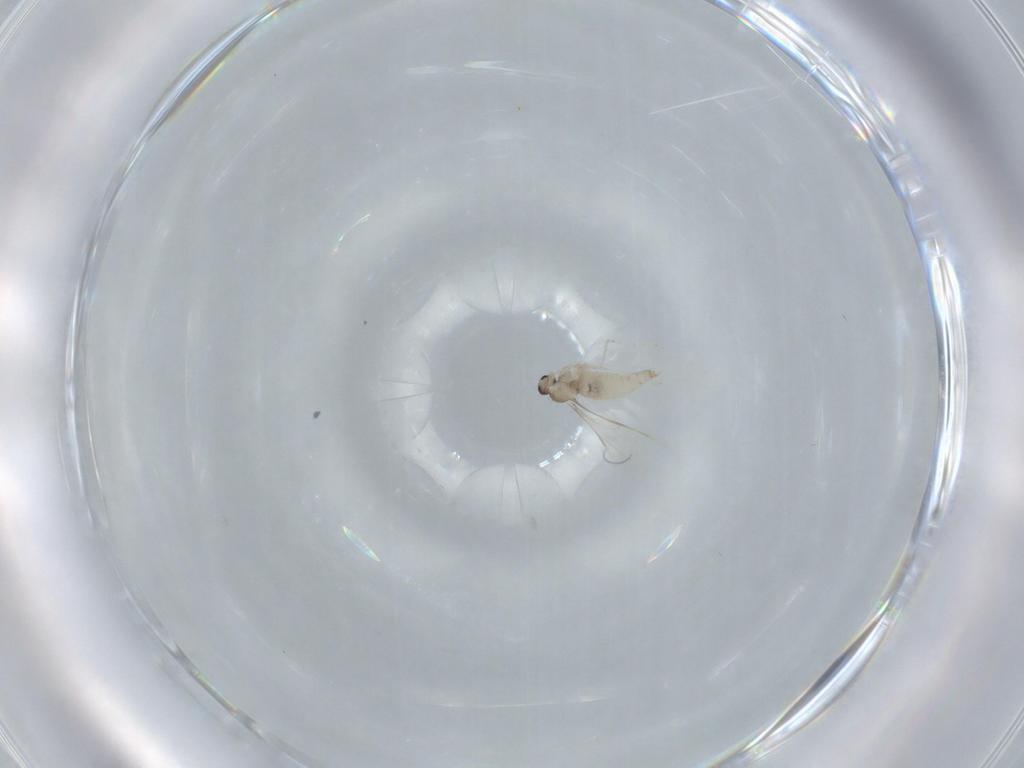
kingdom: Animalia
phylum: Arthropoda
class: Insecta
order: Diptera
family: Cecidomyiidae
